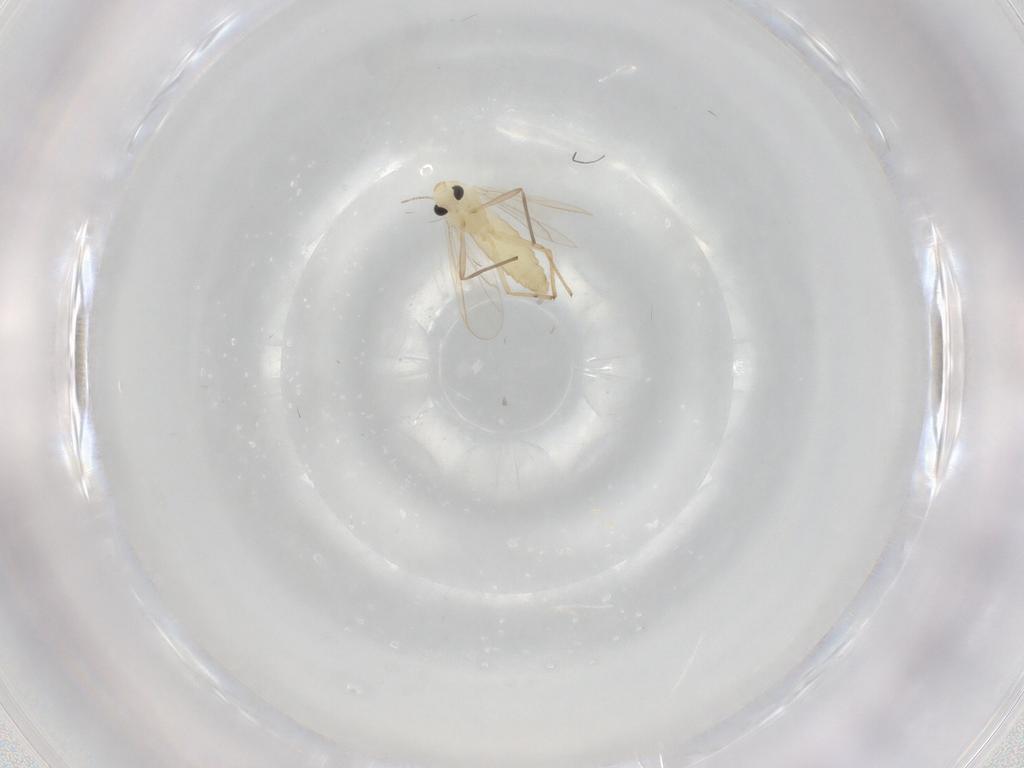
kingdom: Animalia
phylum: Arthropoda
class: Insecta
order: Diptera
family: Chironomidae
